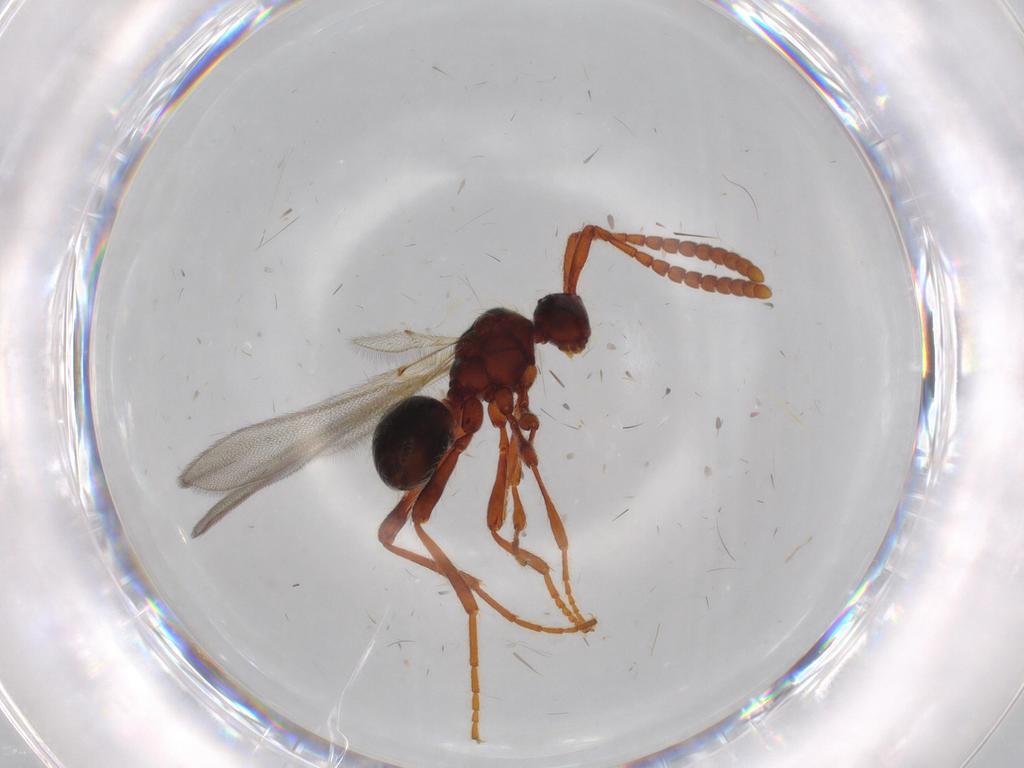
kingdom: Animalia
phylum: Arthropoda
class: Insecta
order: Hymenoptera
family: Diapriidae
